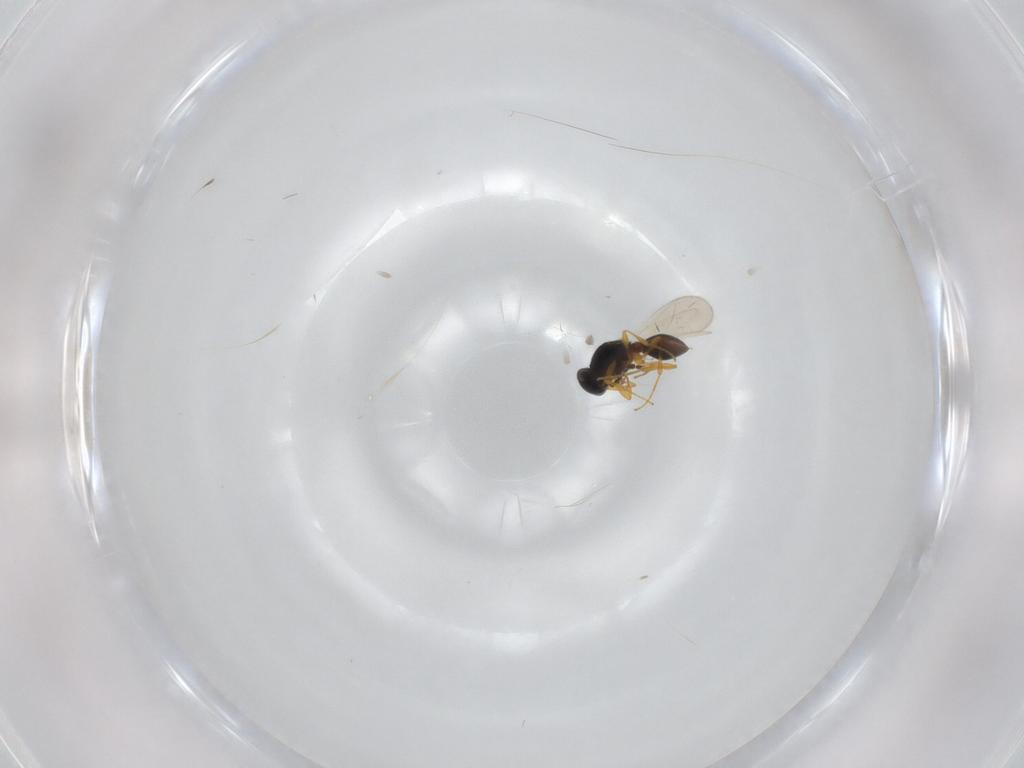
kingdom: Animalia
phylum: Arthropoda
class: Insecta
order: Hymenoptera
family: Platygastridae
